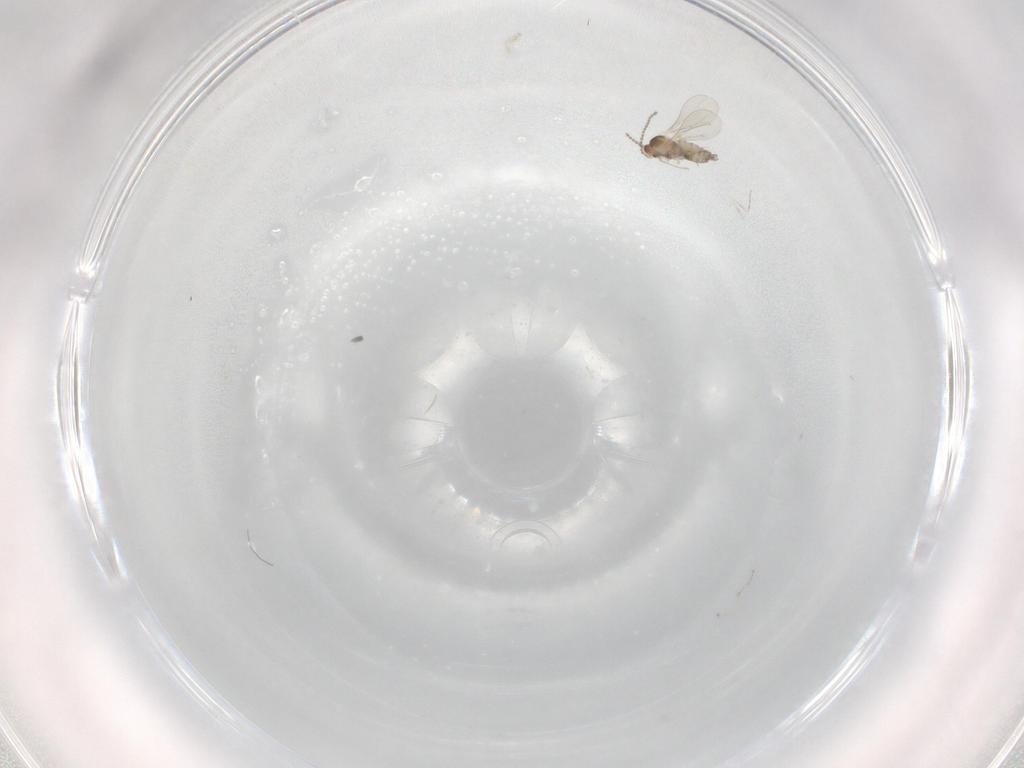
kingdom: Animalia
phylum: Arthropoda
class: Insecta
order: Diptera
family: Cecidomyiidae
